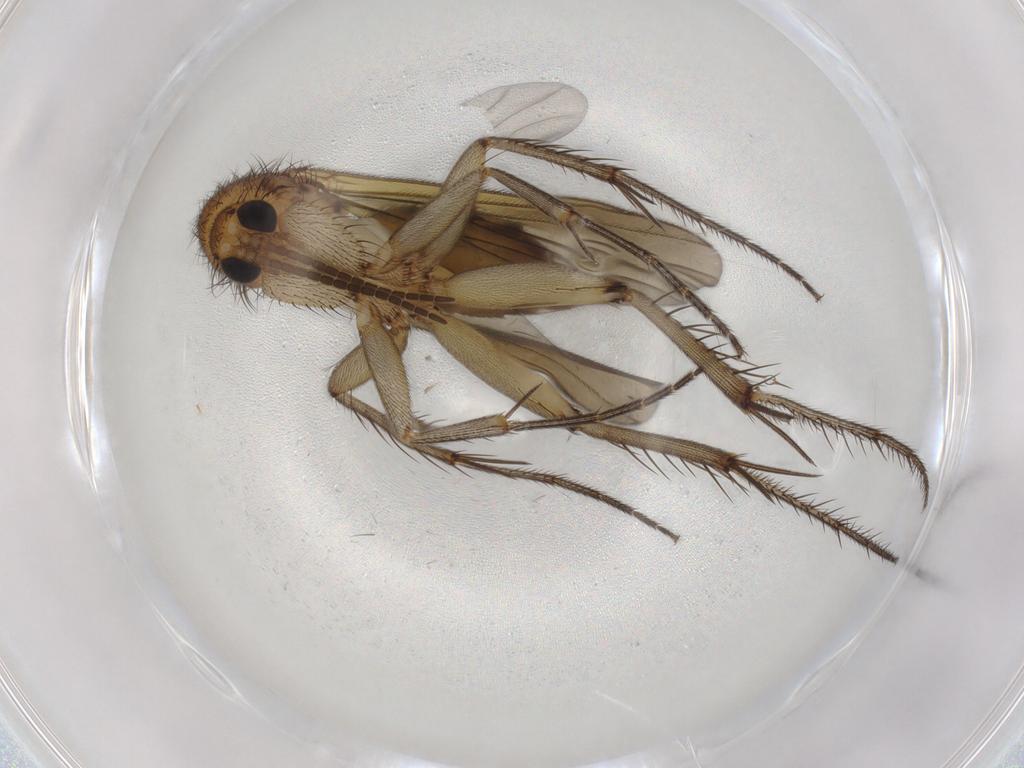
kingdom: Animalia
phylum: Arthropoda
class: Insecta
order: Diptera
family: Mycetophilidae
